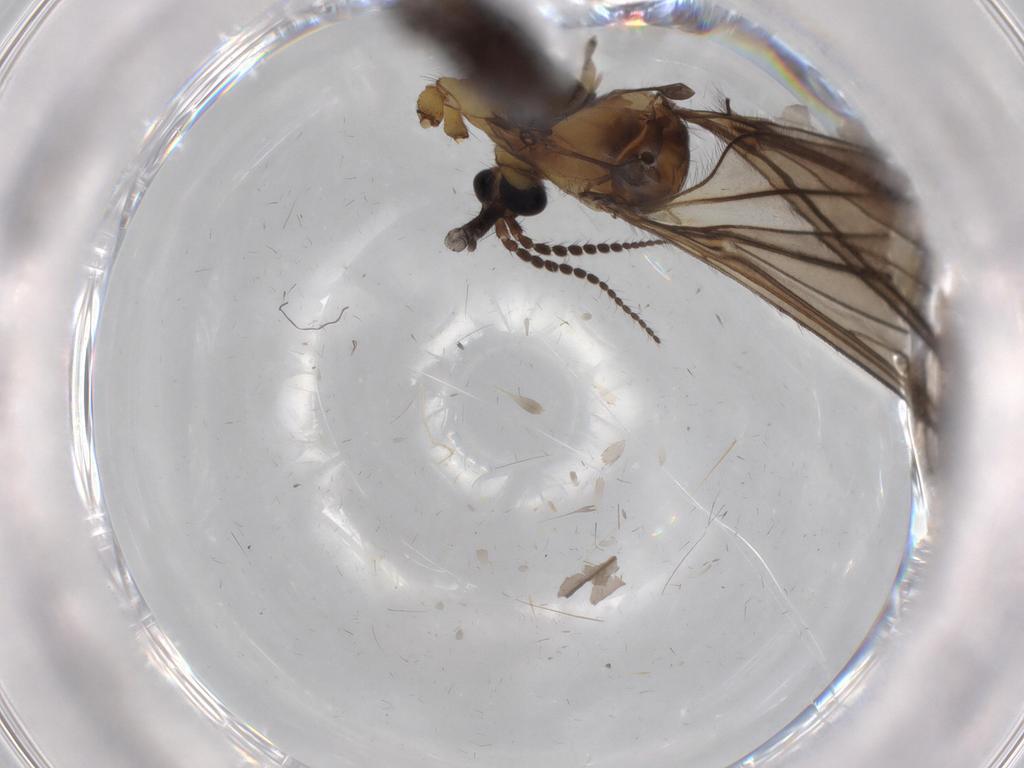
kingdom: Animalia
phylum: Arthropoda
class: Insecta
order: Diptera
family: Limoniidae
